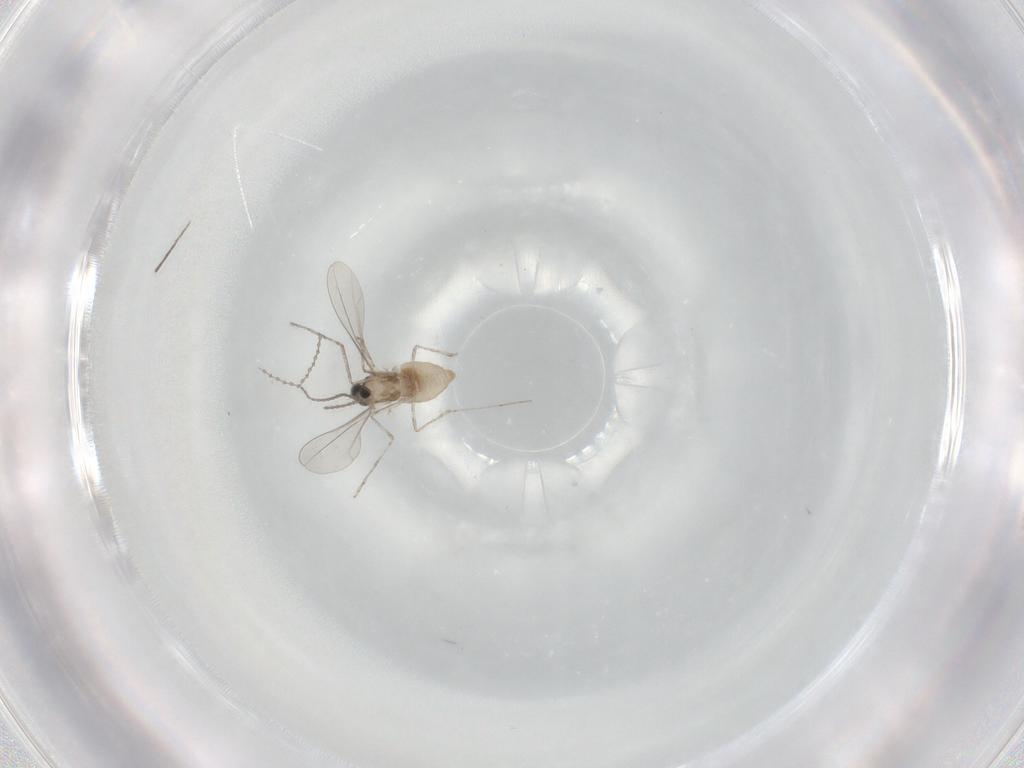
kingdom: Animalia
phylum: Arthropoda
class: Insecta
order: Diptera
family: Cecidomyiidae
